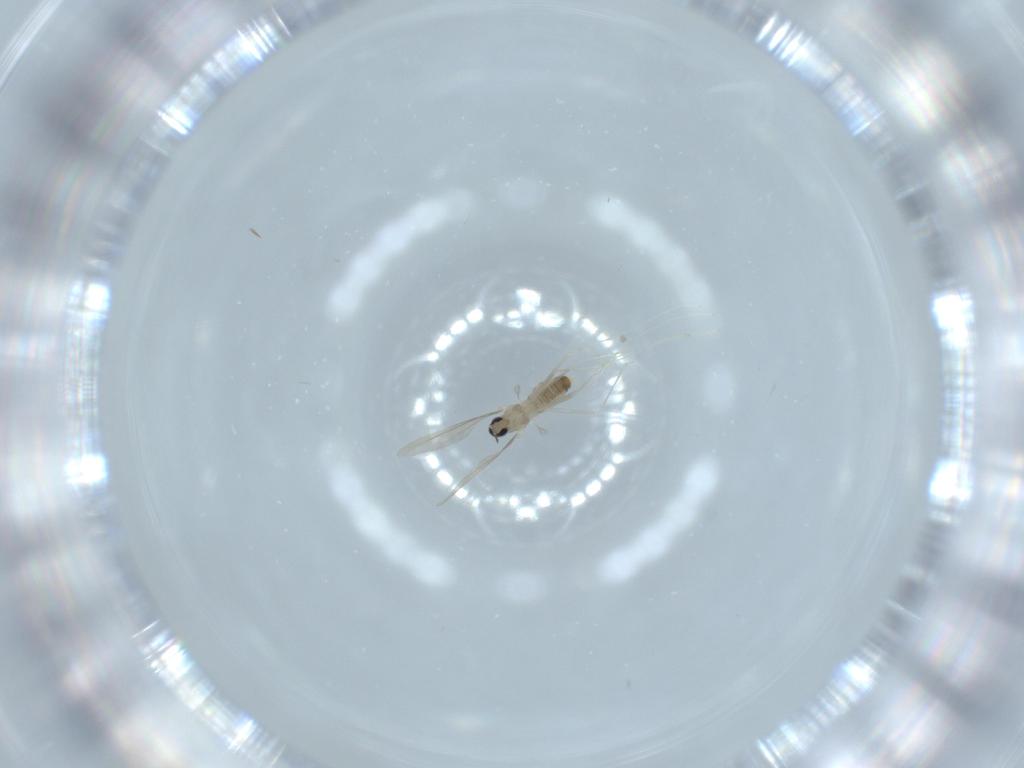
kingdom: Animalia
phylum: Arthropoda
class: Insecta
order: Diptera
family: Cecidomyiidae
